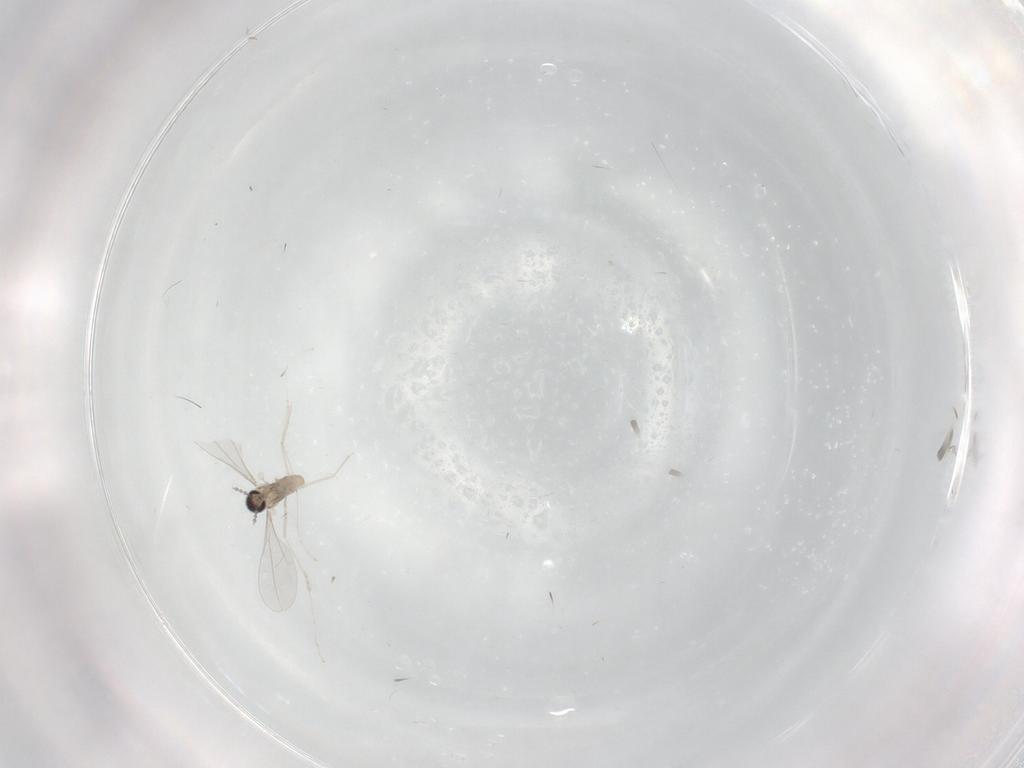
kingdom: Animalia
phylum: Arthropoda
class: Insecta
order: Diptera
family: Cecidomyiidae
